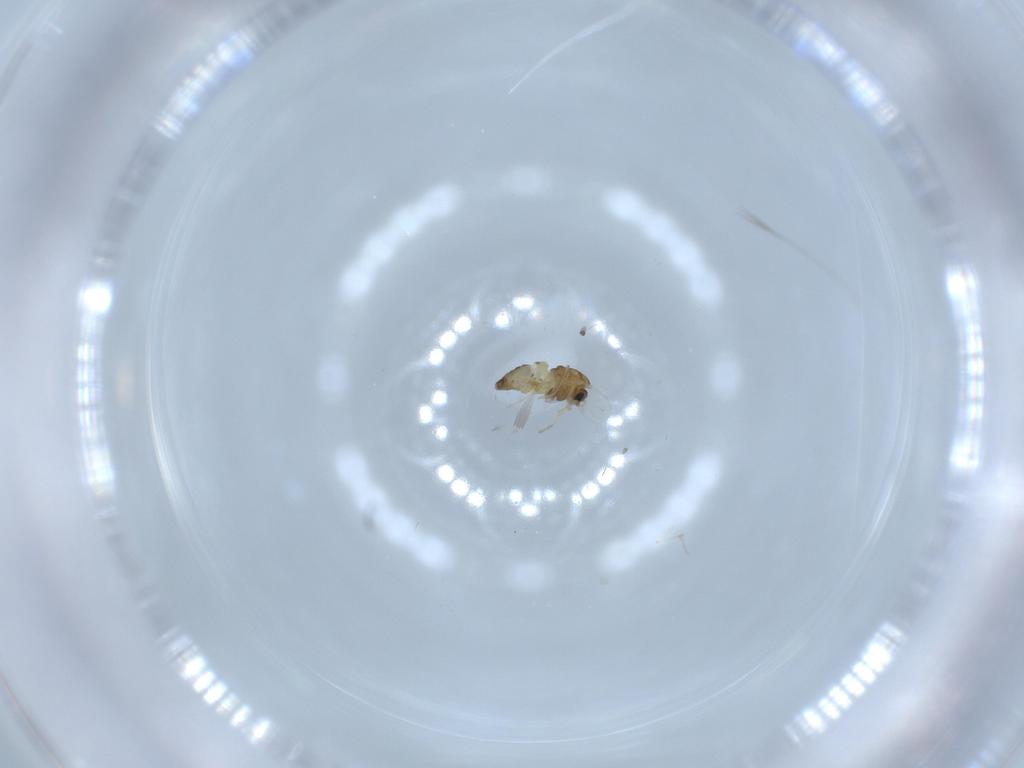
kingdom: Animalia
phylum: Arthropoda
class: Insecta
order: Diptera
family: Chironomidae
